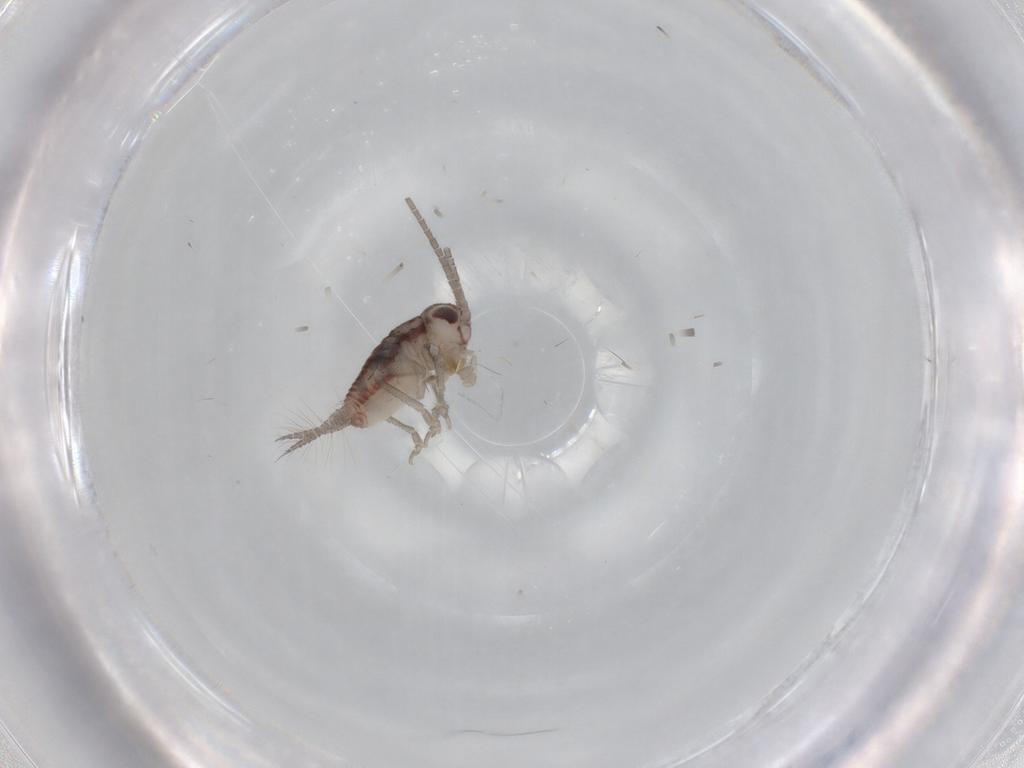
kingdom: Animalia
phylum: Arthropoda
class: Insecta
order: Orthoptera
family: Trigonidiidae
